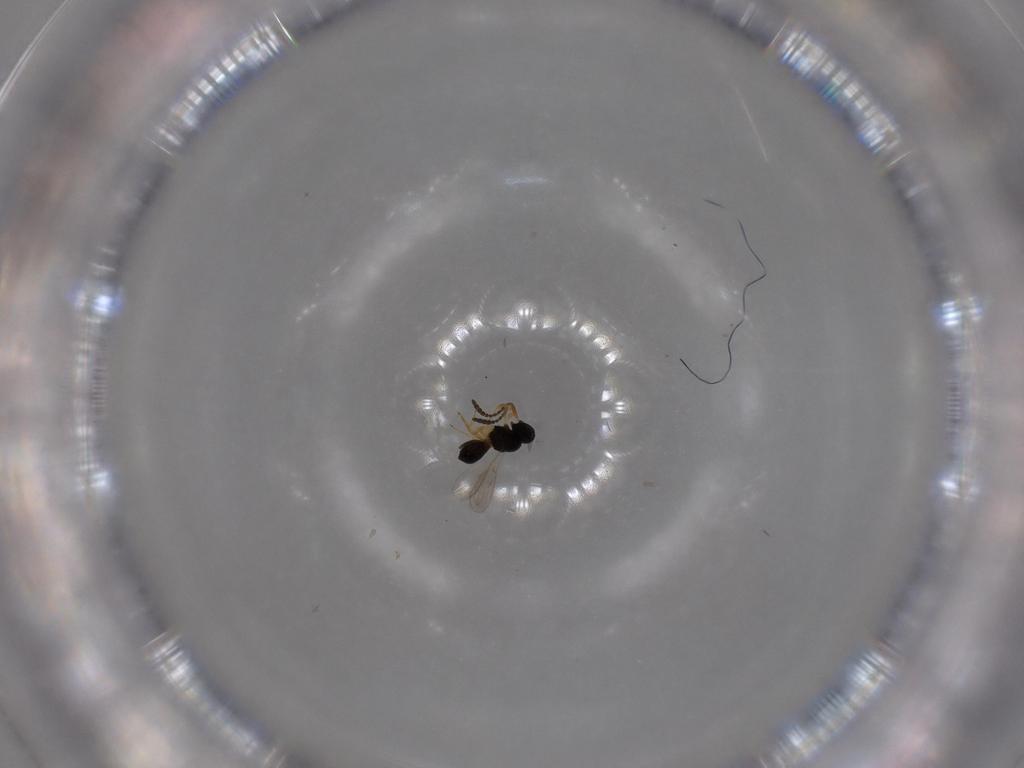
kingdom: Animalia
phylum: Arthropoda
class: Insecta
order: Hymenoptera
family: Scelionidae
